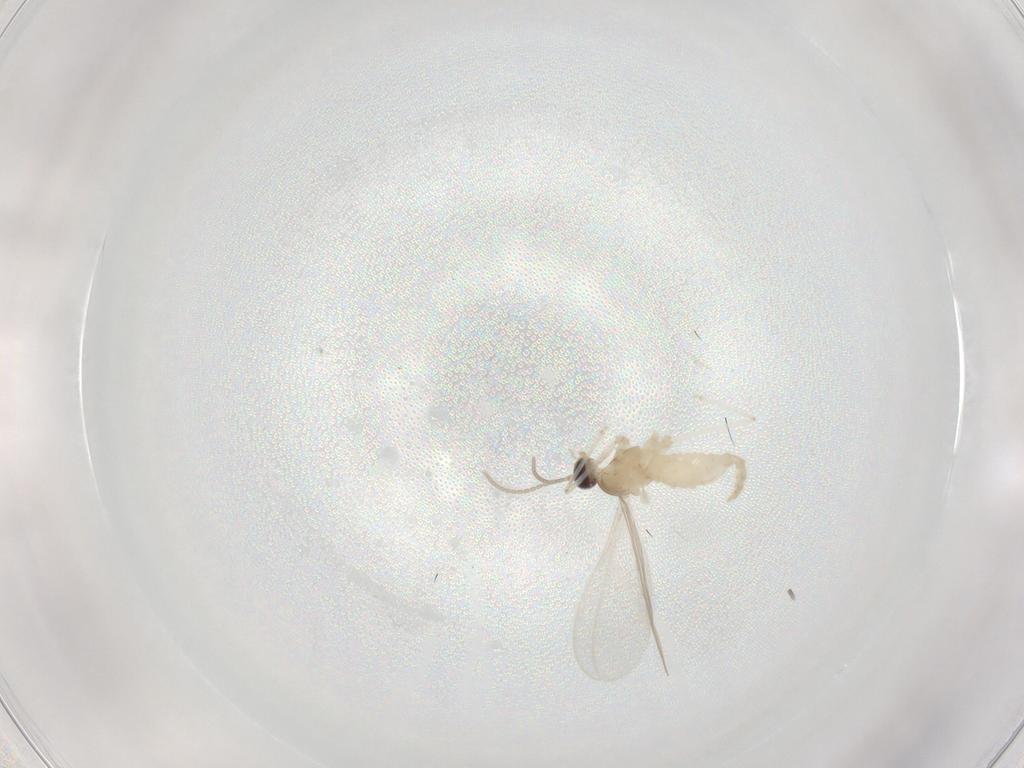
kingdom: Animalia
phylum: Arthropoda
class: Insecta
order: Diptera
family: Cecidomyiidae
